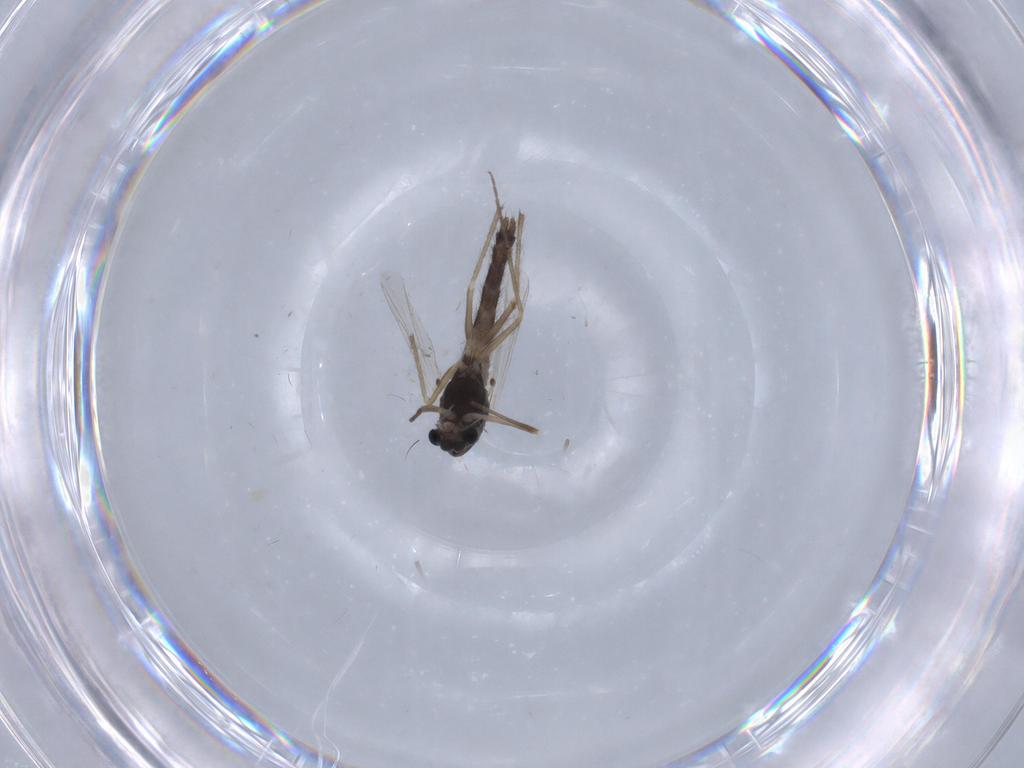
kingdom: Animalia
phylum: Arthropoda
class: Insecta
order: Diptera
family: Chironomidae
